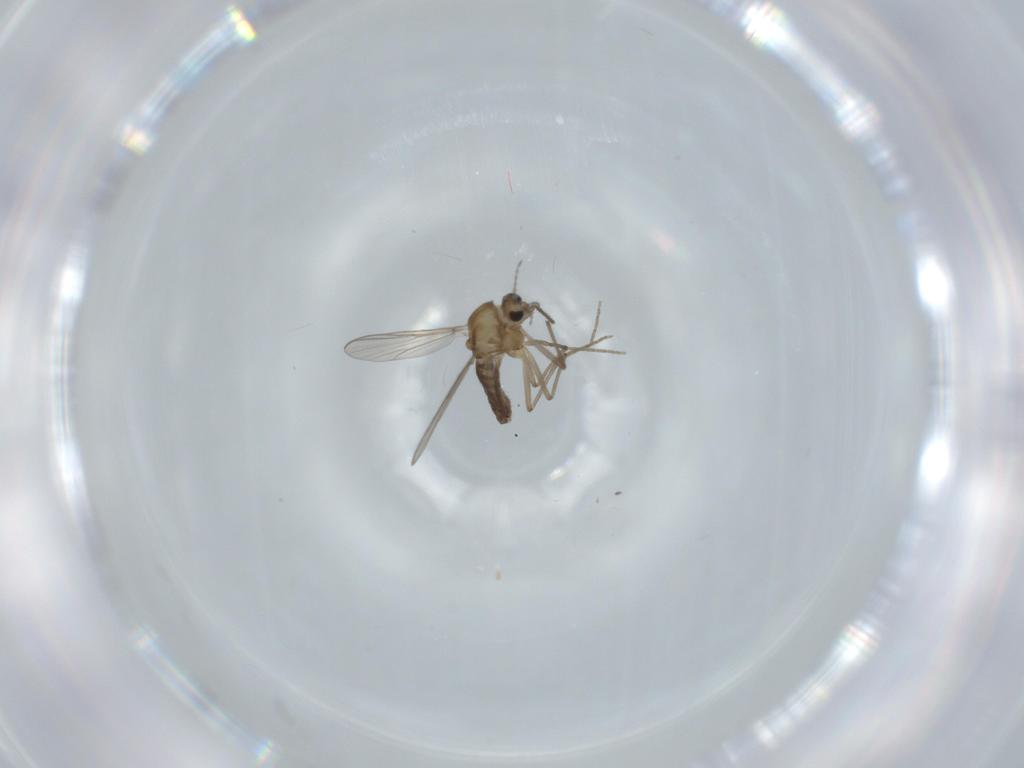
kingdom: Animalia
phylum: Arthropoda
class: Insecta
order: Diptera
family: Chironomidae
